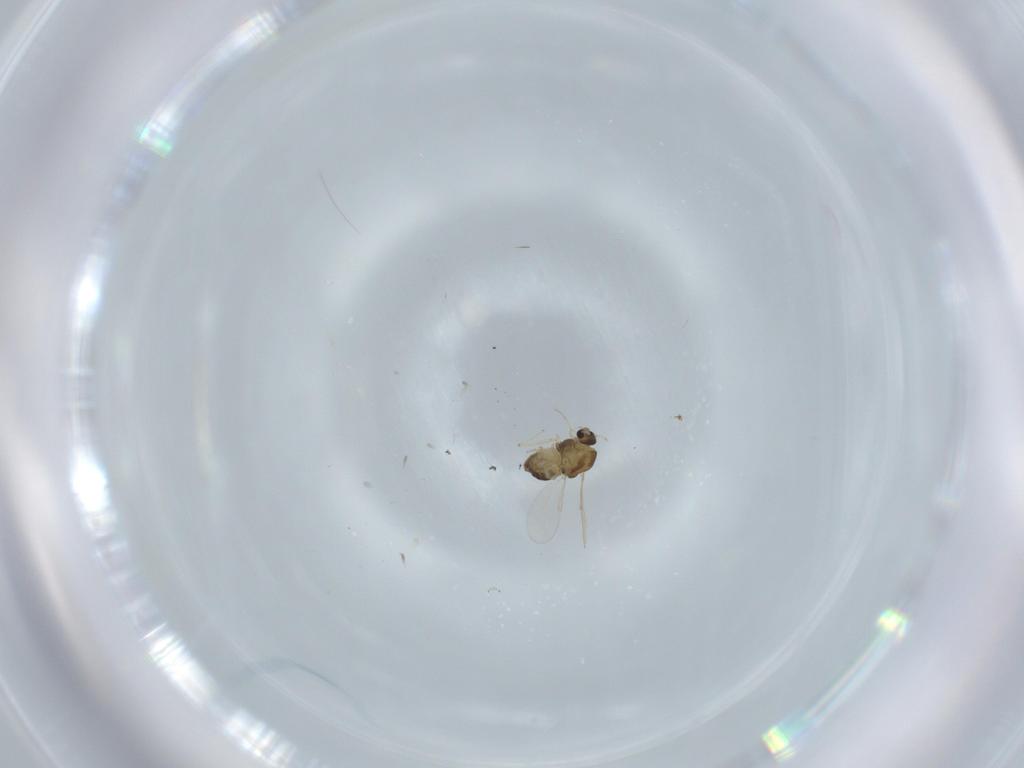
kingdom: Animalia
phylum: Arthropoda
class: Insecta
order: Diptera
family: Chironomidae
